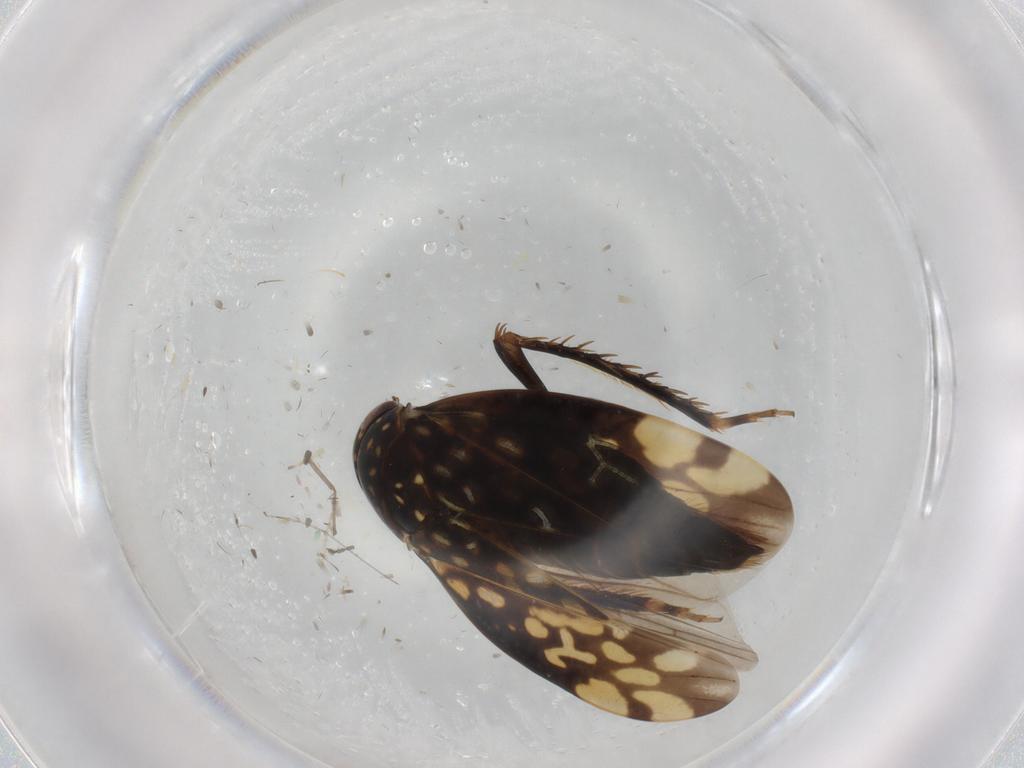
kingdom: Animalia
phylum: Arthropoda
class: Insecta
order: Hemiptera
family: Cicadellidae
